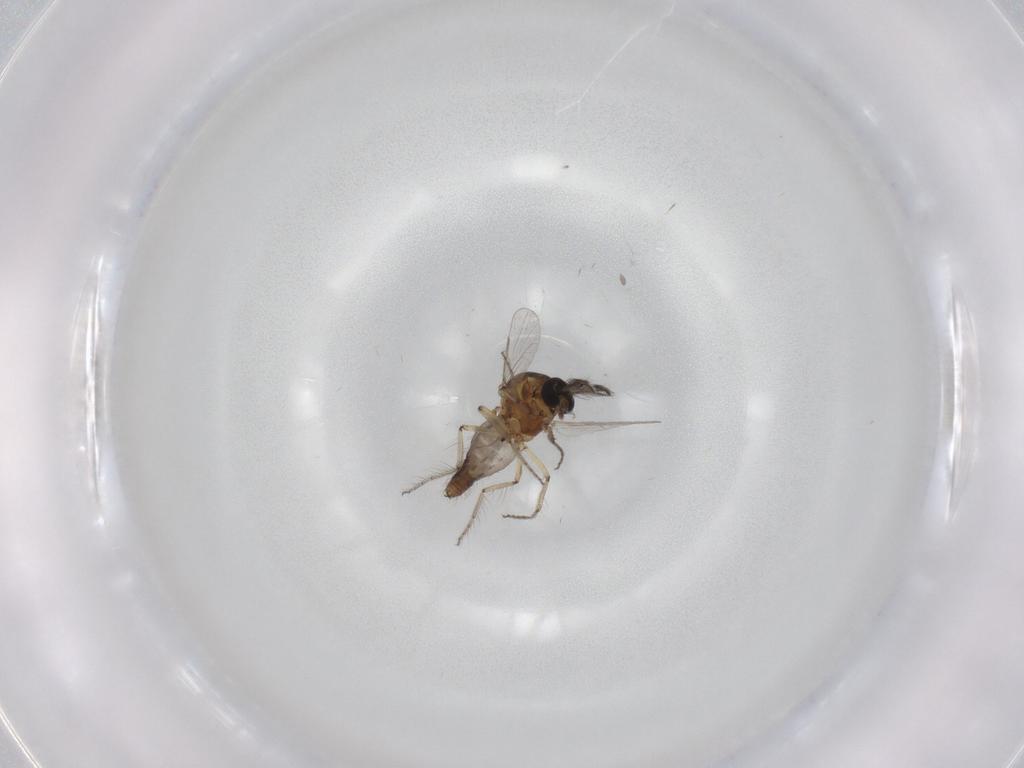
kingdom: Animalia
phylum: Arthropoda
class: Insecta
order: Diptera
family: Ceratopogonidae
